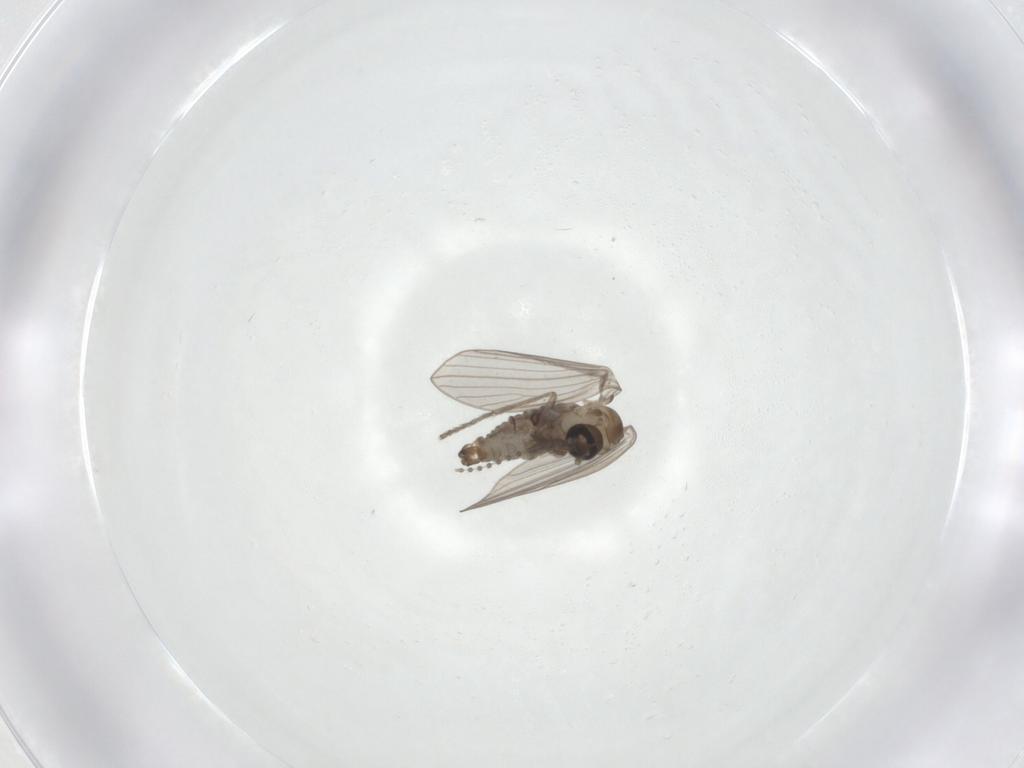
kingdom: Animalia
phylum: Arthropoda
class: Insecta
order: Diptera
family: Psychodidae
